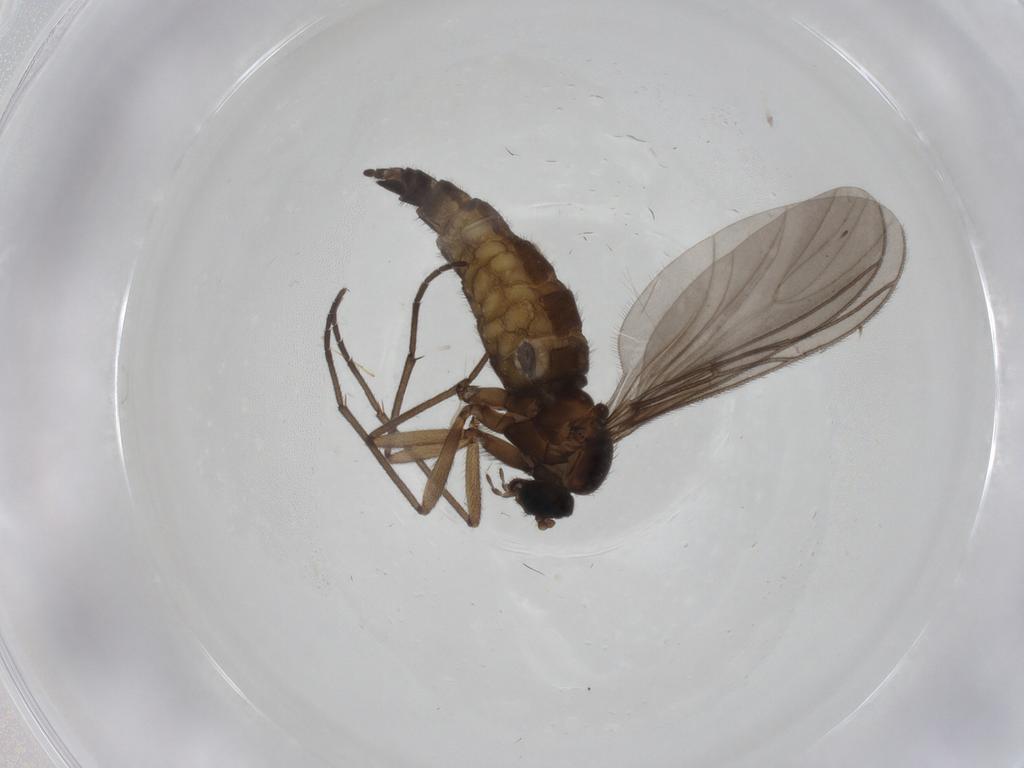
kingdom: Animalia
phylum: Arthropoda
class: Insecta
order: Diptera
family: Sciaridae
